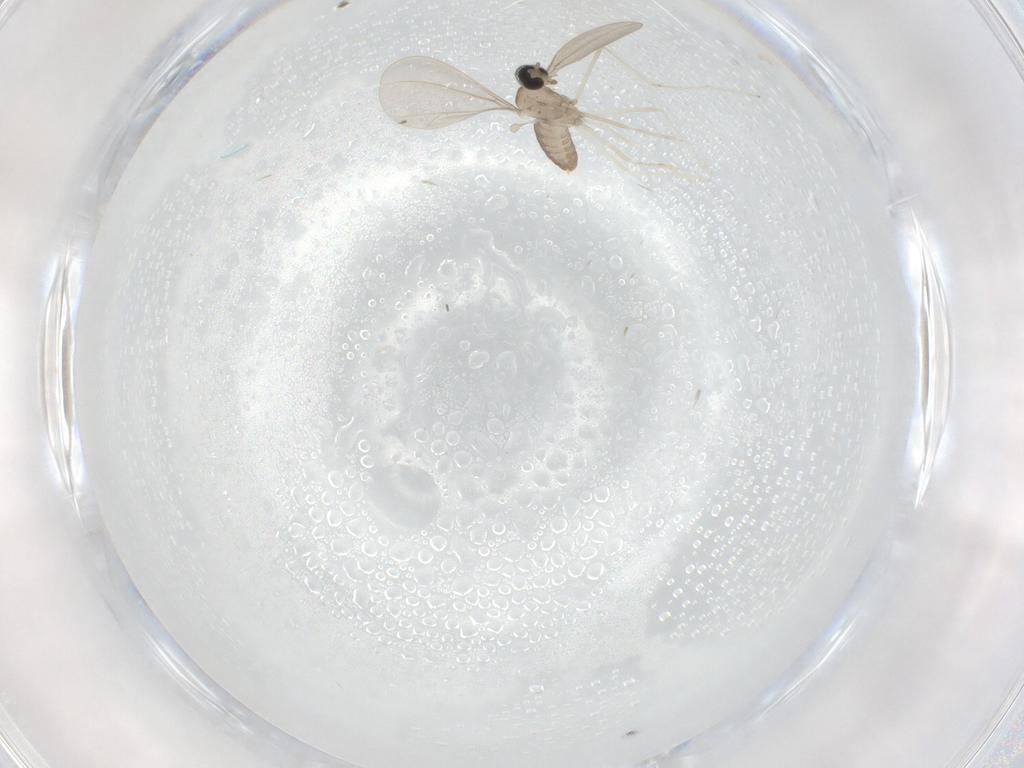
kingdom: Animalia
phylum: Arthropoda
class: Insecta
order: Diptera
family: Cecidomyiidae
